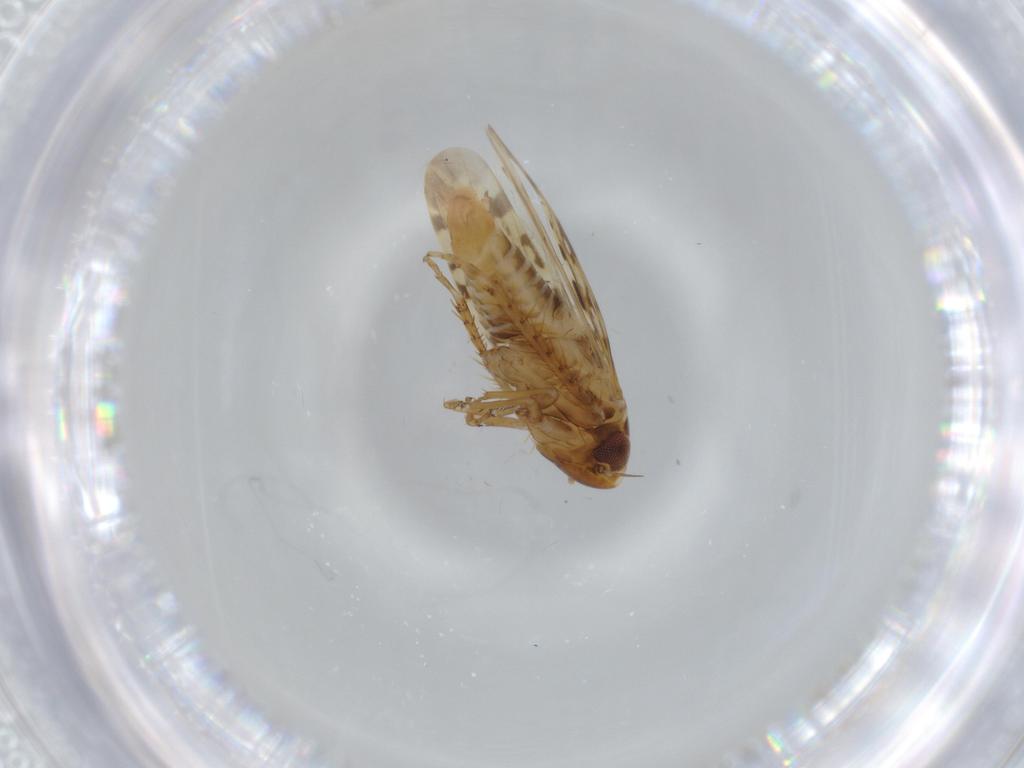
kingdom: Animalia
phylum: Arthropoda
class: Insecta
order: Hemiptera
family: Cicadellidae
